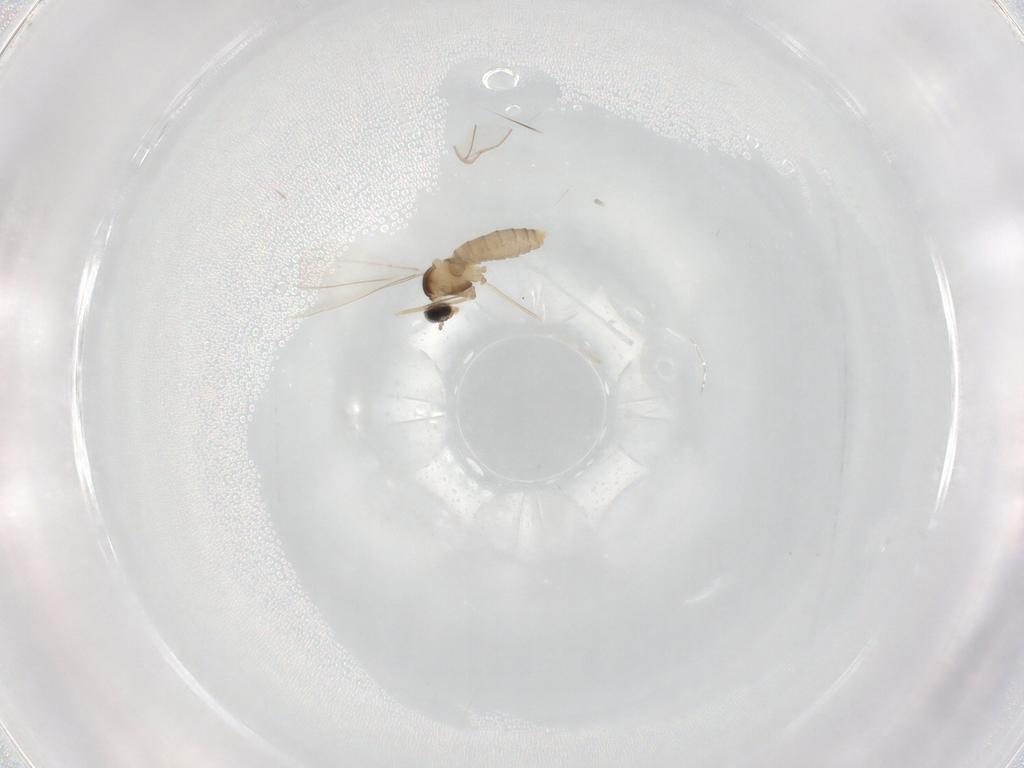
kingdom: Animalia
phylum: Arthropoda
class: Insecta
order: Diptera
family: Cecidomyiidae
